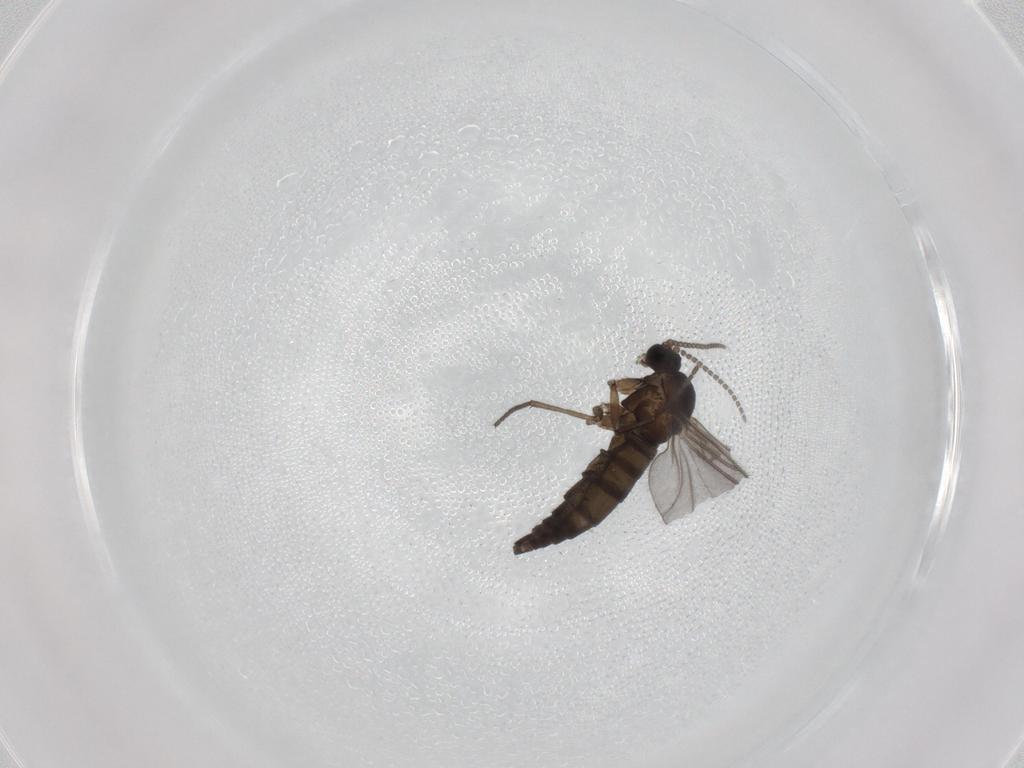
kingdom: Animalia
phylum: Arthropoda
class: Insecta
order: Diptera
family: Sciaridae
